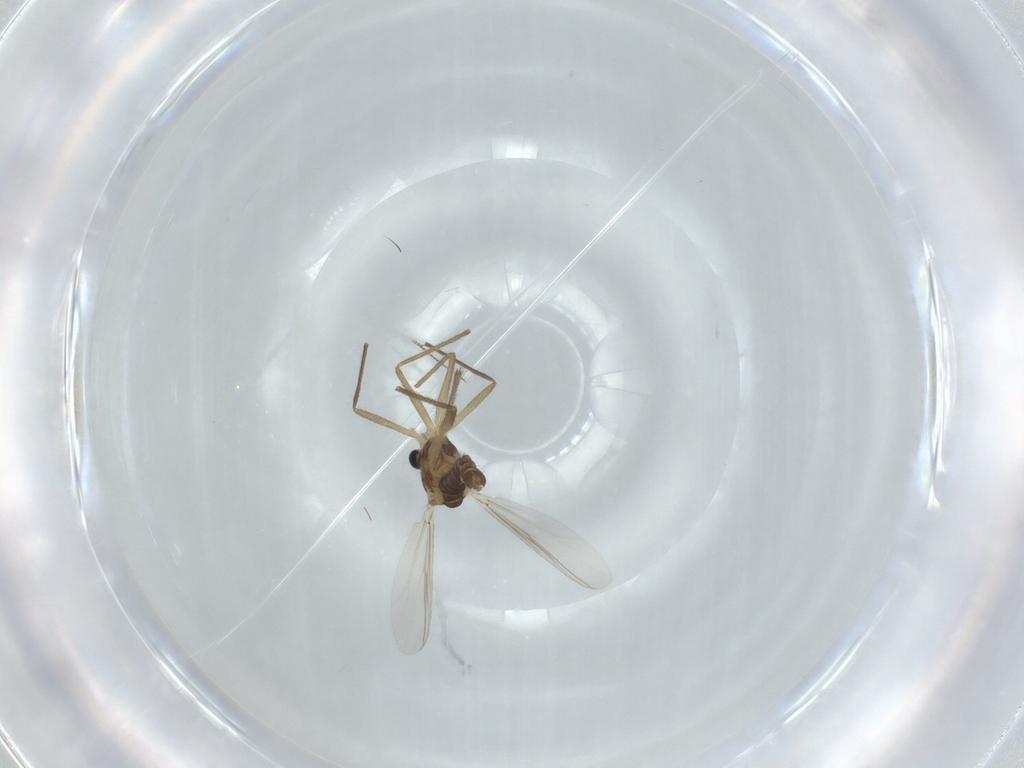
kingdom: Animalia
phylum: Arthropoda
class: Insecta
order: Diptera
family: Chironomidae
